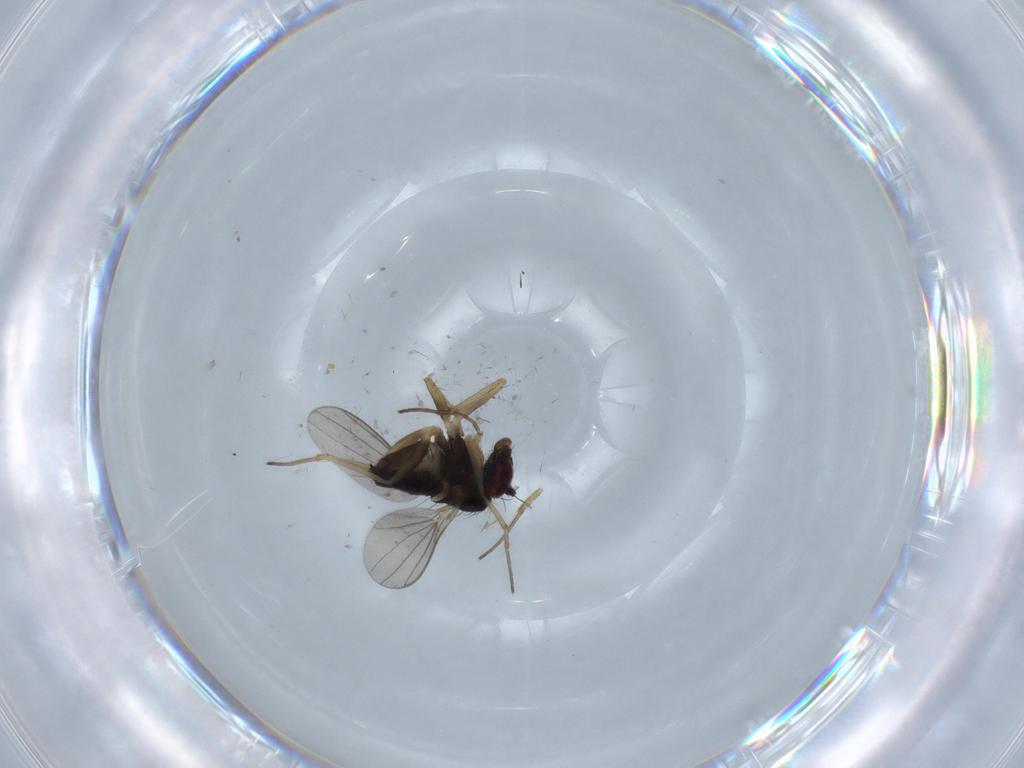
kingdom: Animalia
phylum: Arthropoda
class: Insecta
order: Diptera
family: Dolichopodidae
